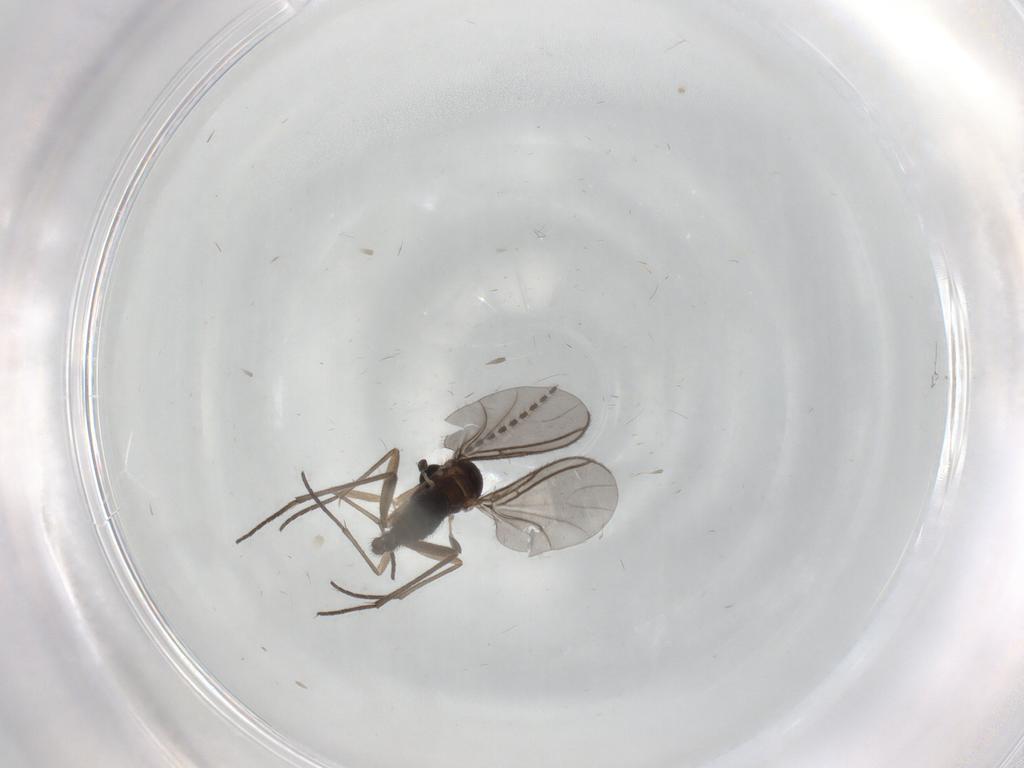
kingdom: Animalia
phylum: Arthropoda
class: Insecta
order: Diptera
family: Sciaridae
